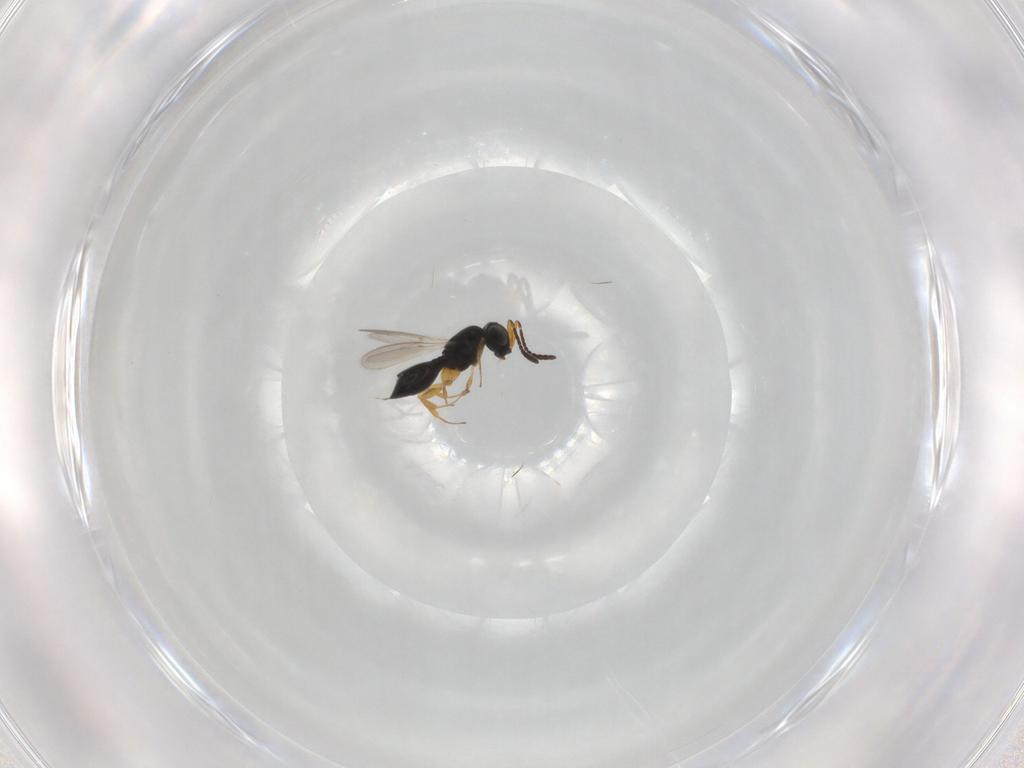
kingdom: Animalia
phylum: Arthropoda
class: Insecta
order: Hymenoptera
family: Scelionidae
